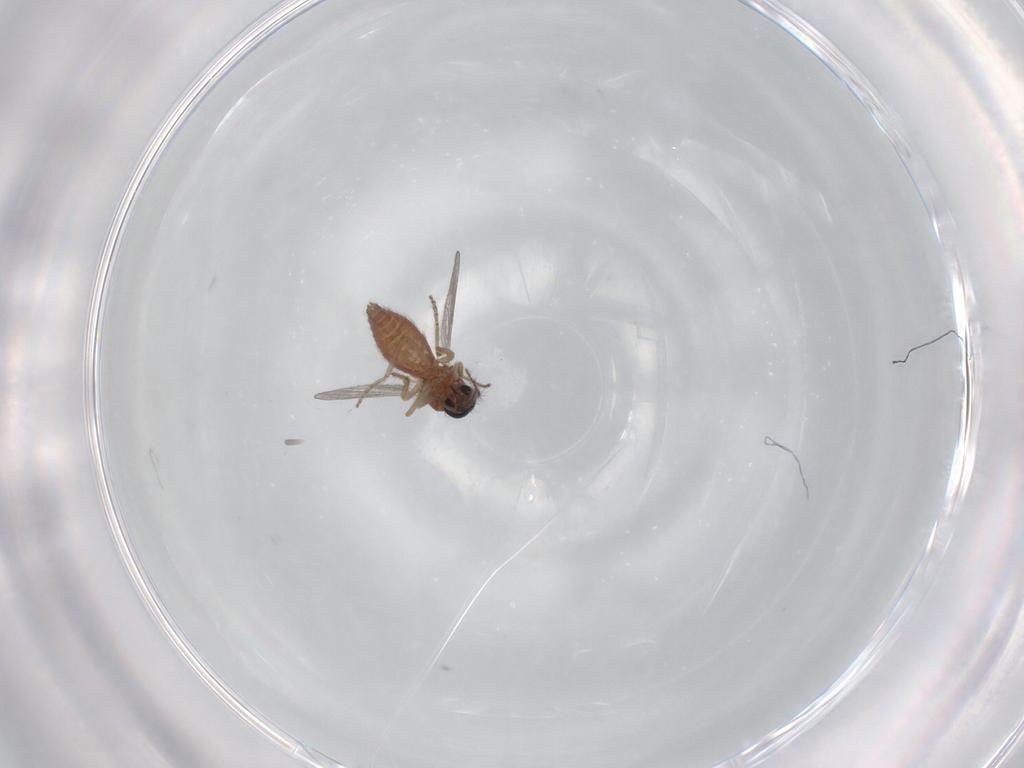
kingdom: Animalia
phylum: Arthropoda
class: Insecta
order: Diptera
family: Ceratopogonidae
